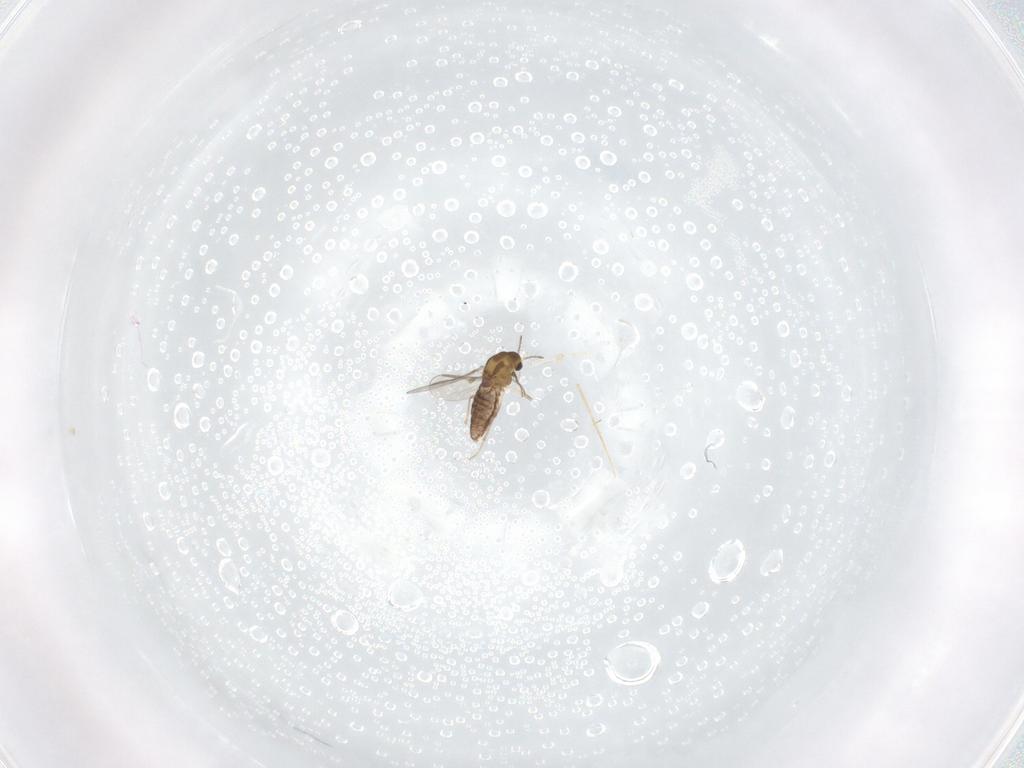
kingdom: Animalia
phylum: Arthropoda
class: Insecta
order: Diptera
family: Chironomidae
